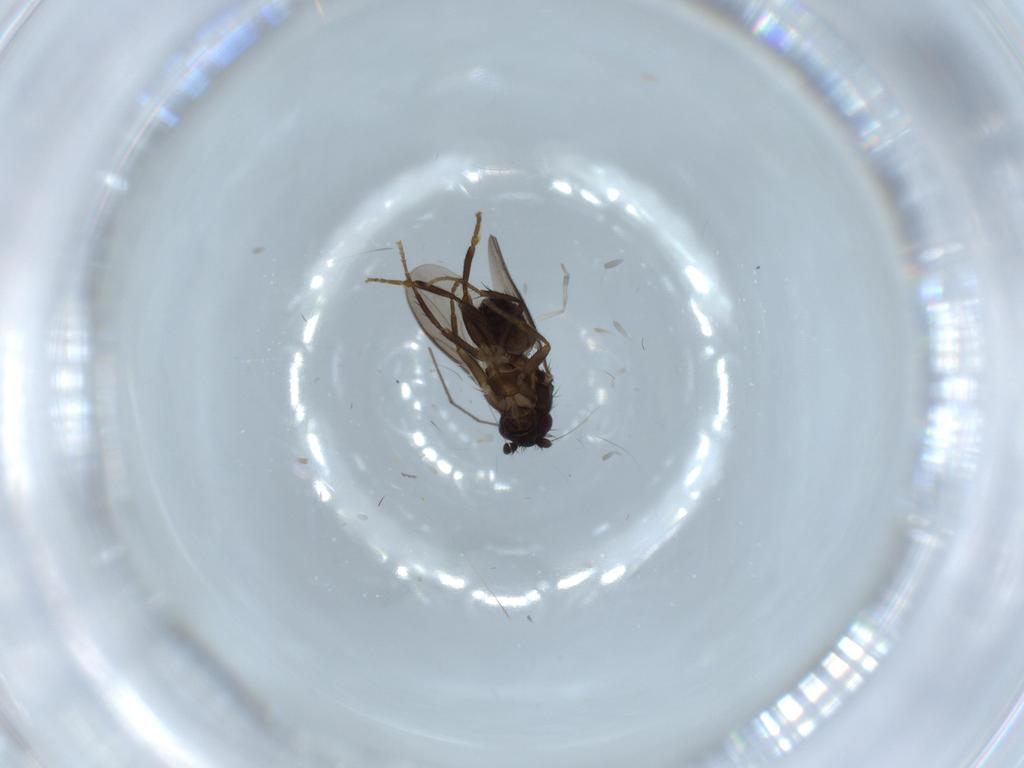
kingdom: Animalia
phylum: Arthropoda
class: Insecta
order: Diptera
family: Sphaeroceridae
